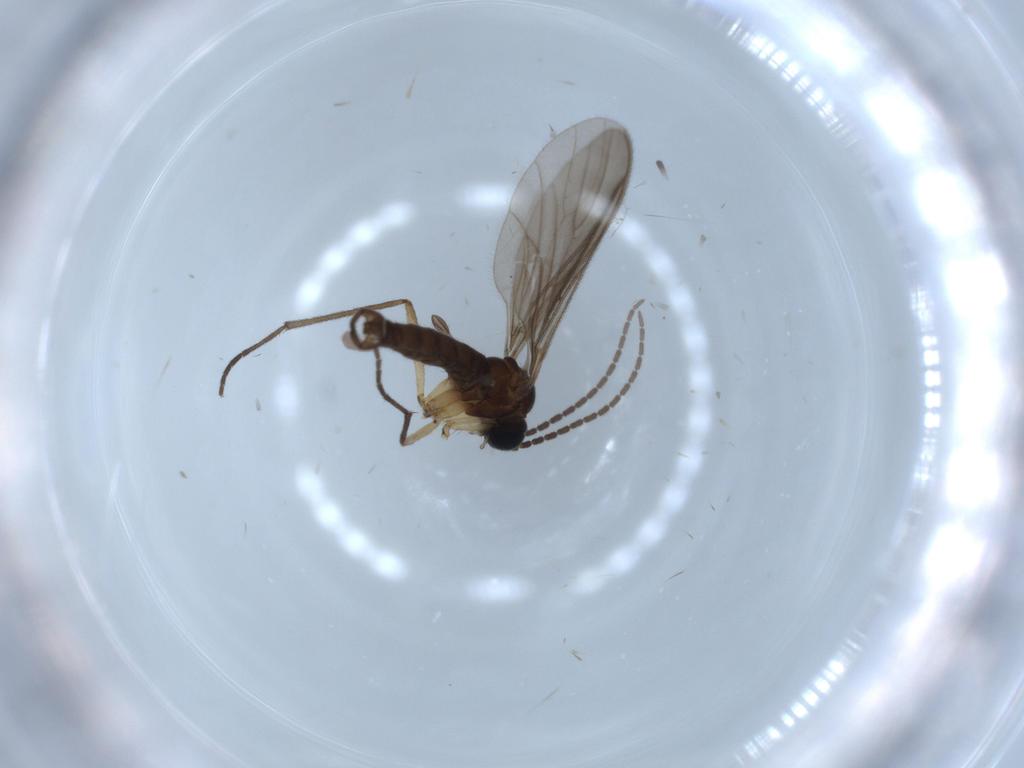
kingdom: Animalia
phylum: Arthropoda
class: Insecta
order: Diptera
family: Sciaridae
